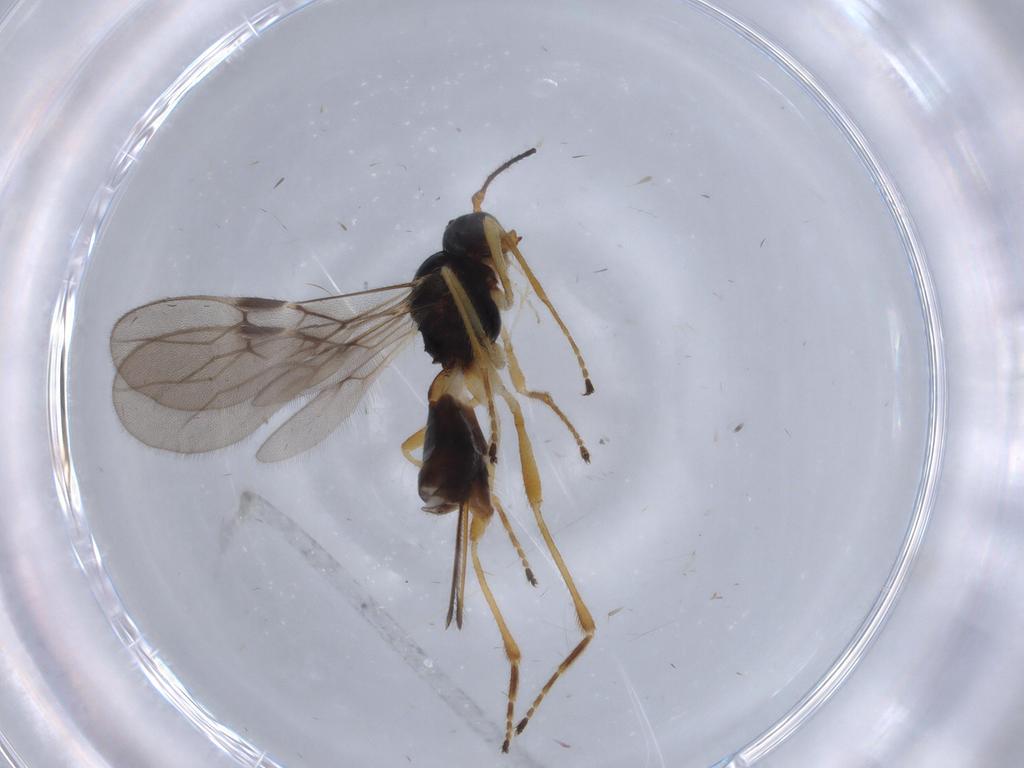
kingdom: Animalia
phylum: Arthropoda
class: Insecta
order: Hymenoptera
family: Braconidae
